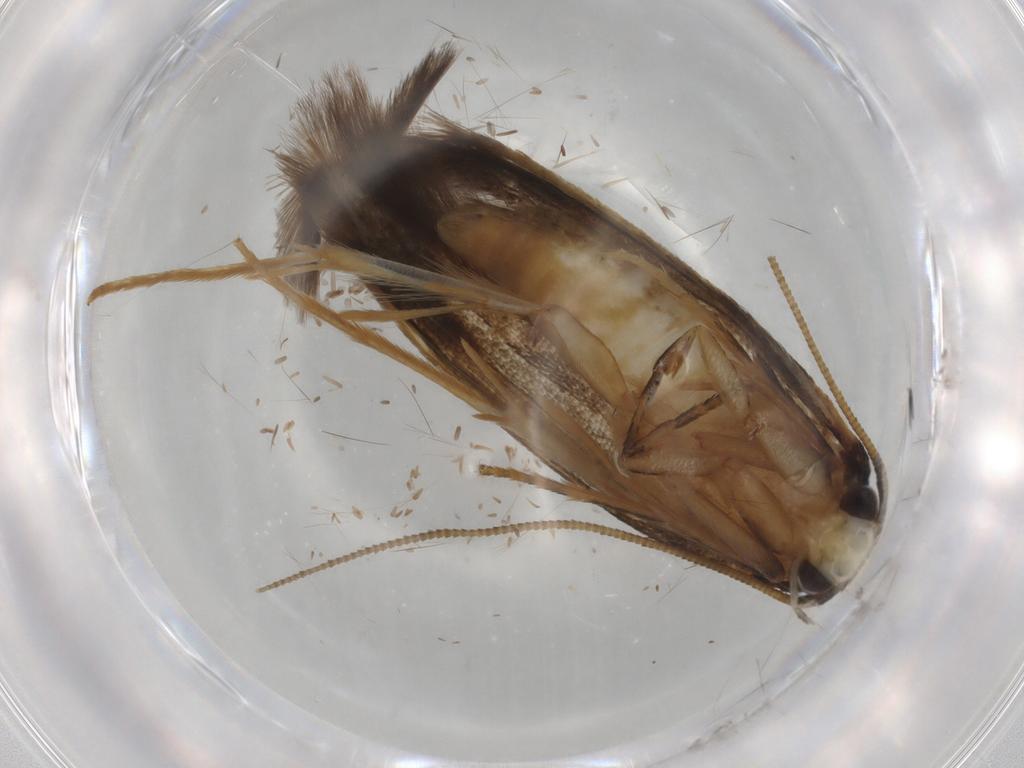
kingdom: Animalia
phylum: Arthropoda
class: Insecta
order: Lepidoptera
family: Tineidae
